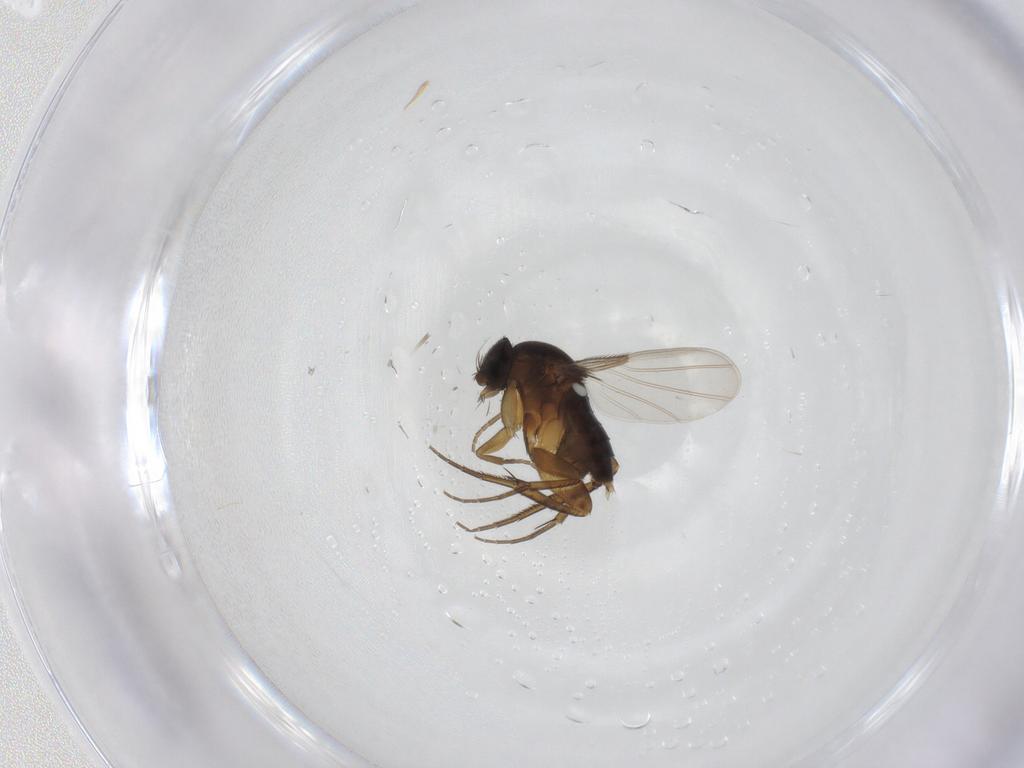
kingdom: Animalia
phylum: Arthropoda
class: Insecta
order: Diptera
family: Phoridae
